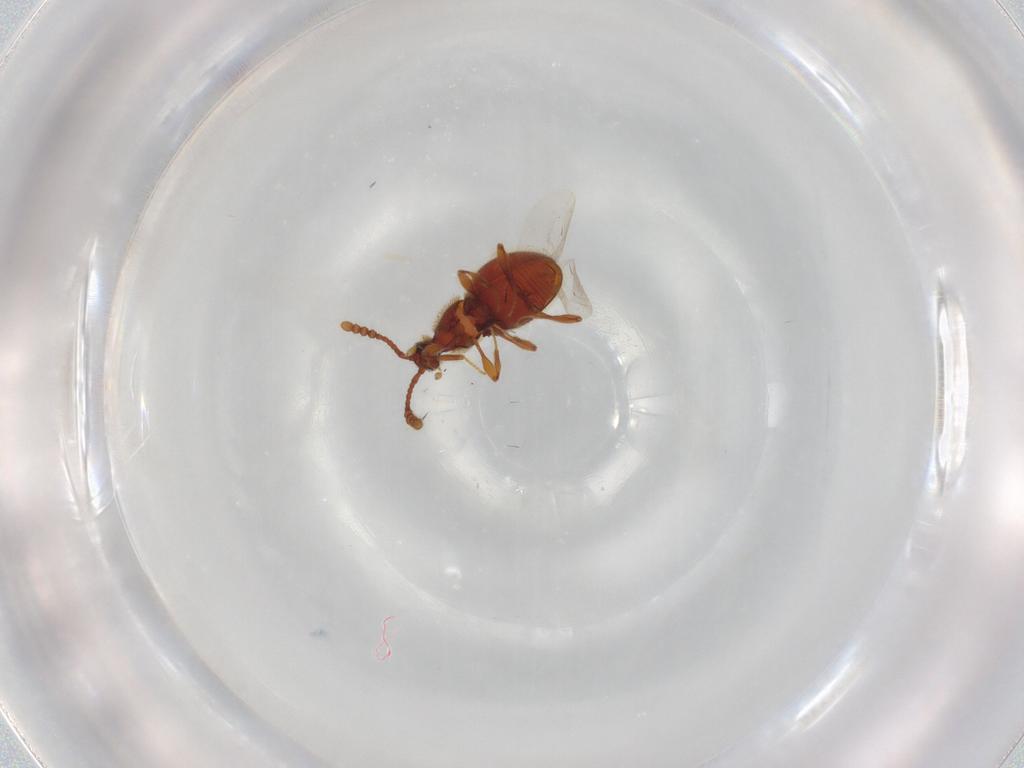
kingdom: Animalia
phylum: Arthropoda
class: Insecta
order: Coleoptera
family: Staphylinidae
